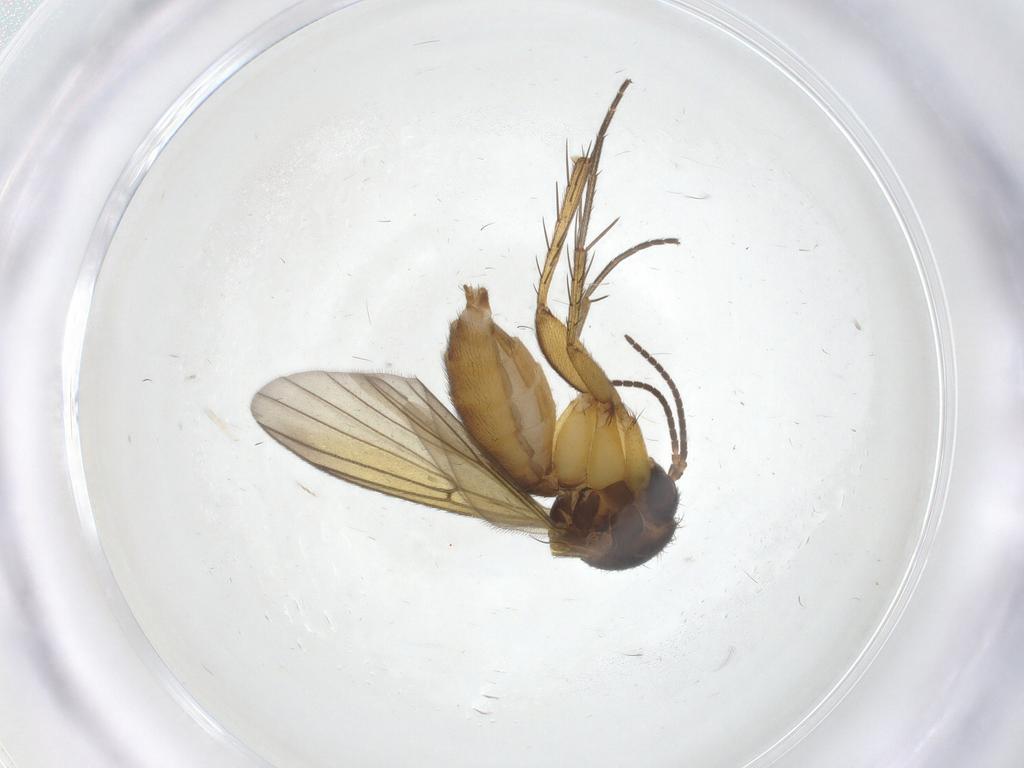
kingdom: Animalia
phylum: Arthropoda
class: Insecta
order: Diptera
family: Mycetophilidae
